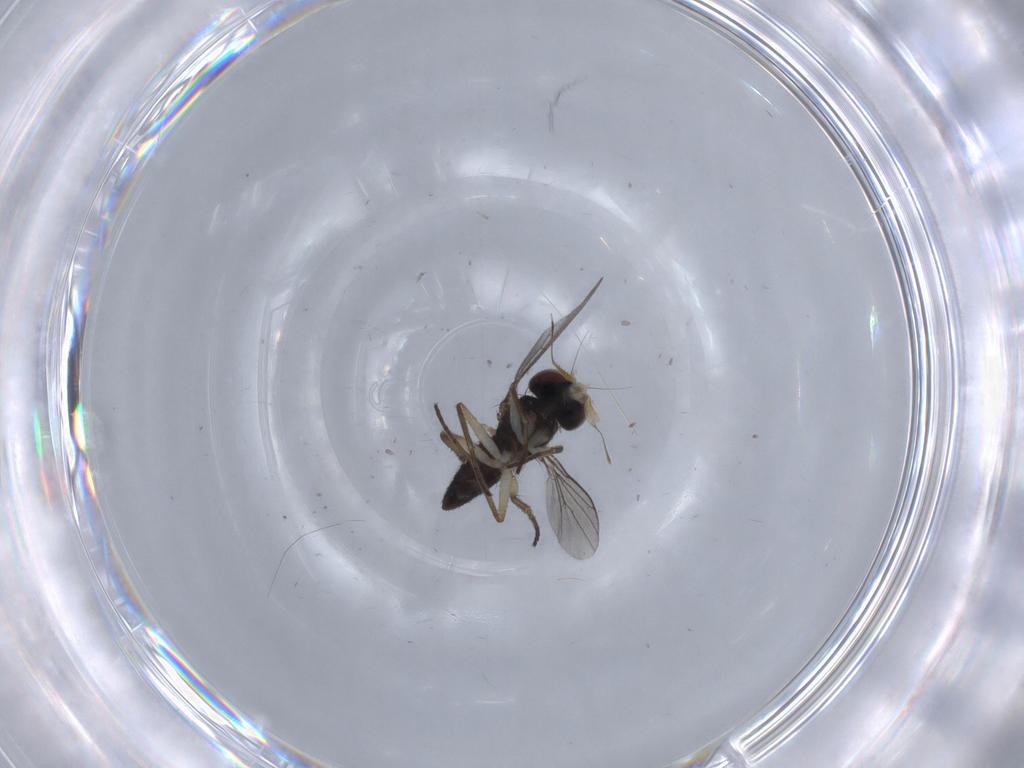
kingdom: Animalia
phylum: Arthropoda
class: Insecta
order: Diptera
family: Dolichopodidae
